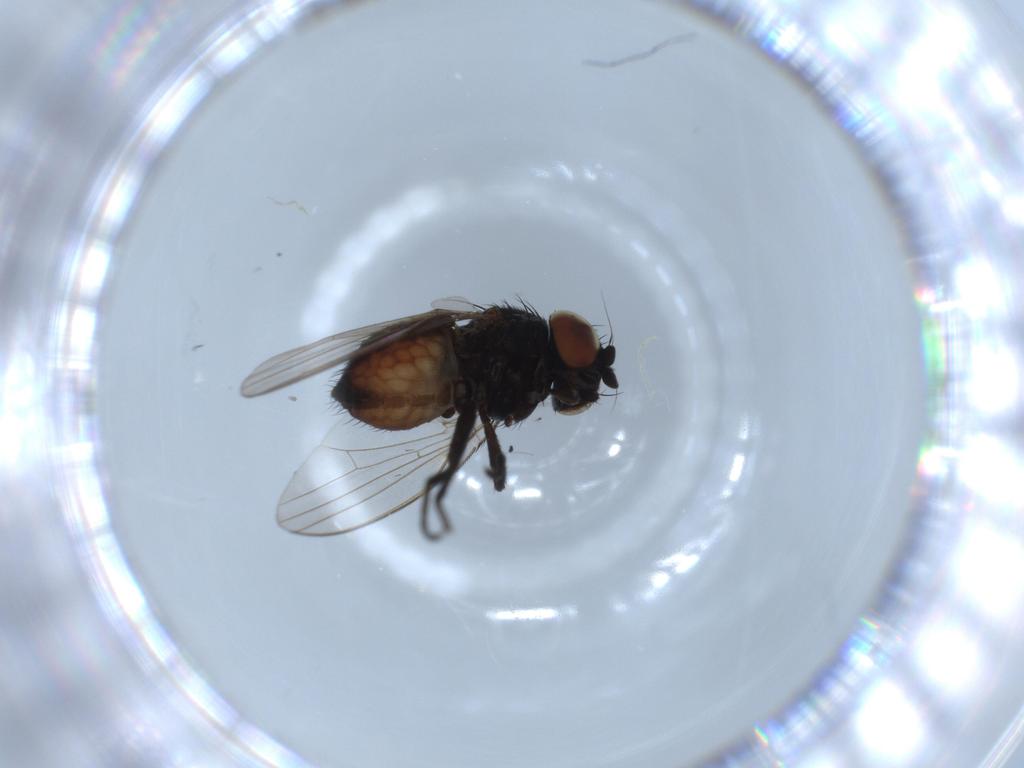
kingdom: Animalia
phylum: Arthropoda
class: Insecta
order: Diptera
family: Milichiidae
